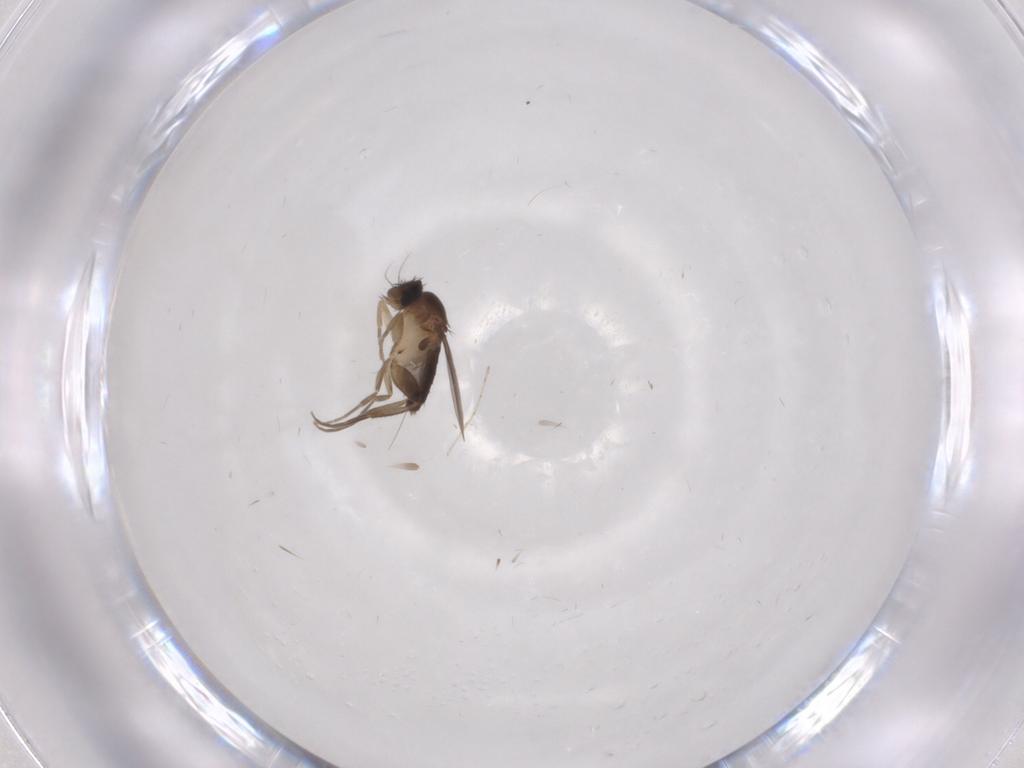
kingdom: Animalia
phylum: Arthropoda
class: Insecta
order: Diptera
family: Phoridae
